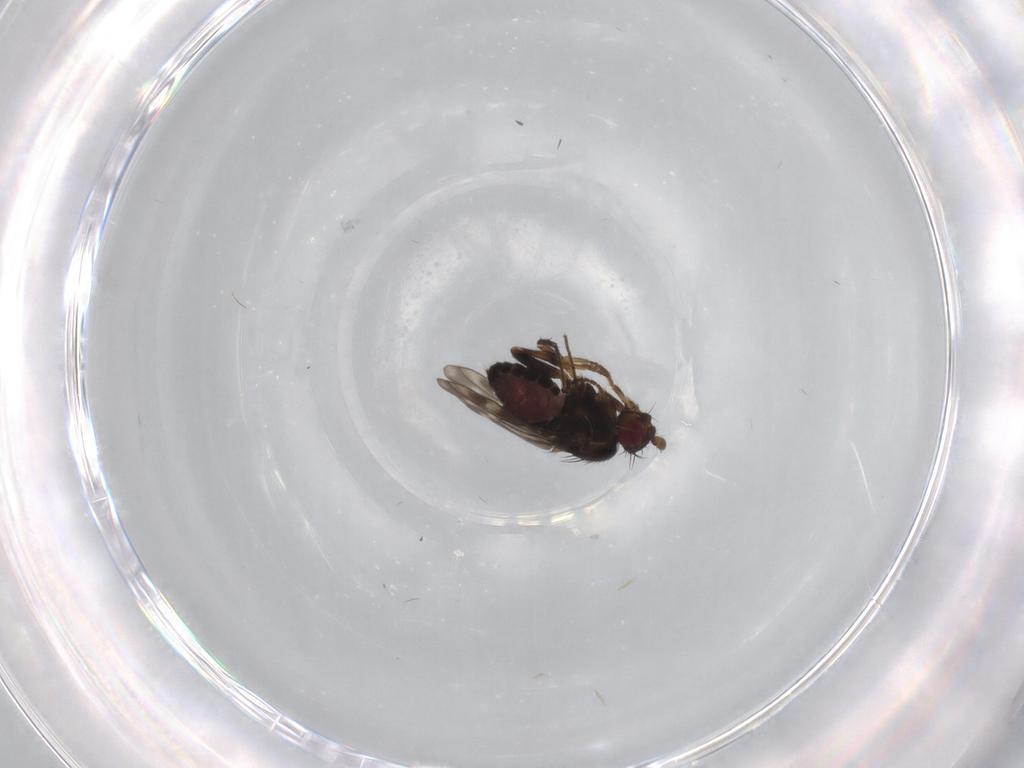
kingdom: Animalia
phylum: Arthropoda
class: Insecta
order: Diptera
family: Sphaeroceridae
